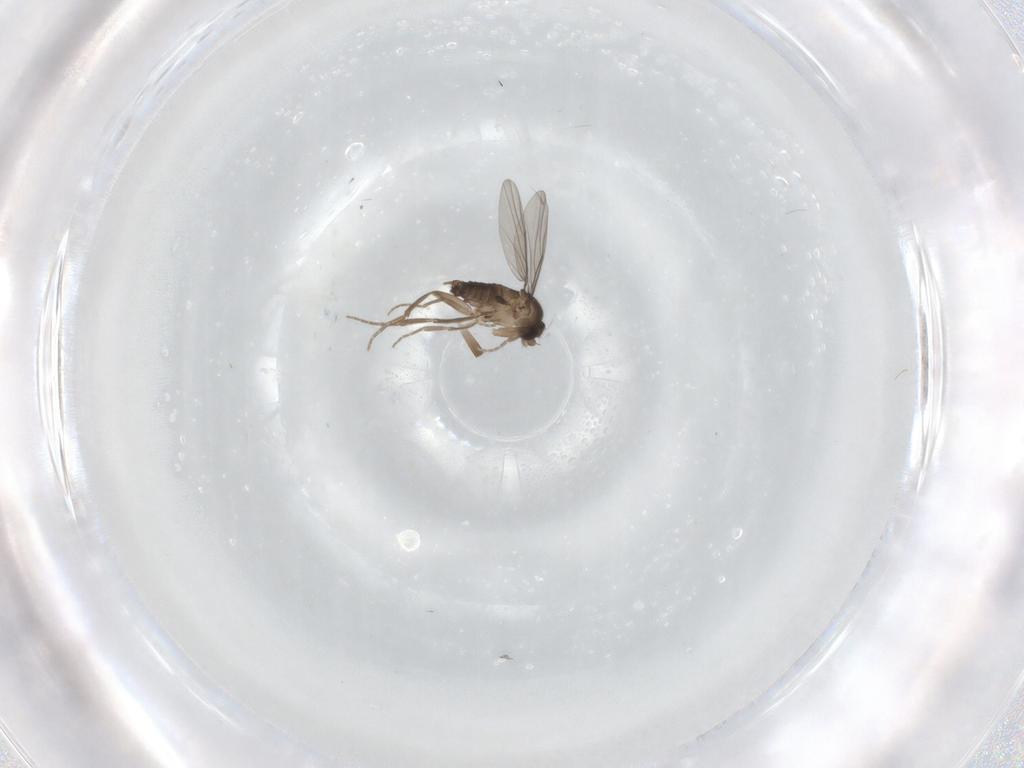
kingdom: Animalia
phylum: Arthropoda
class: Insecta
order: Diptera
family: Phoridae
